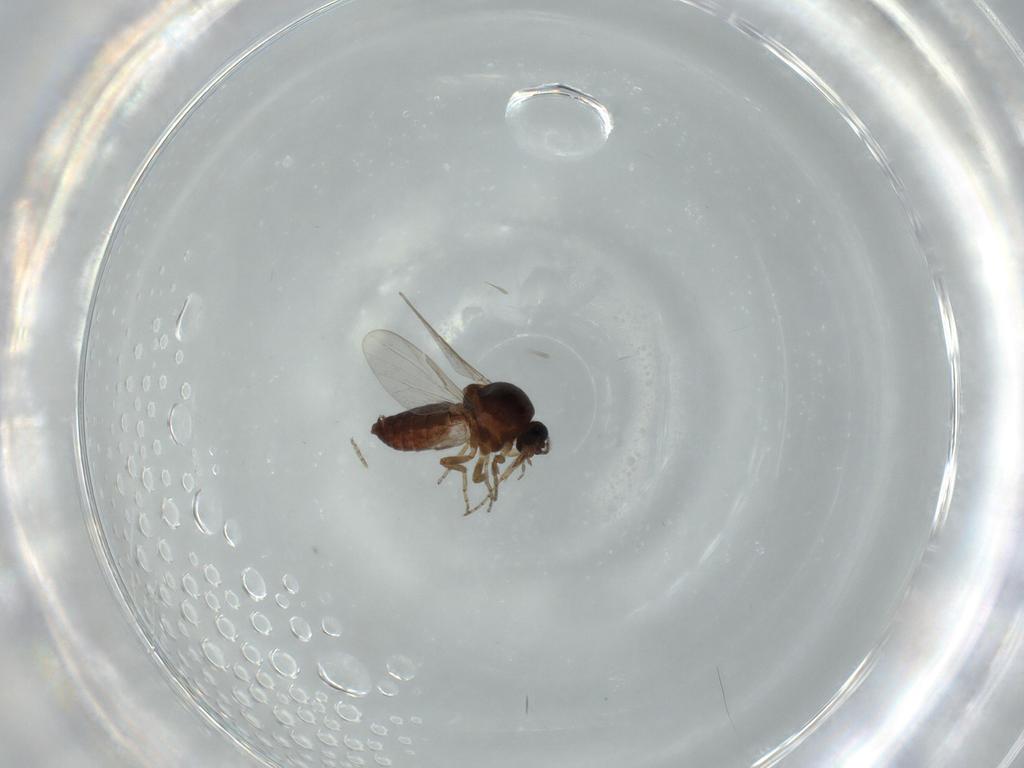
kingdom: Animalia
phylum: Arthropoda
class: Insecta
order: Diptera
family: Ceratopogonidae
